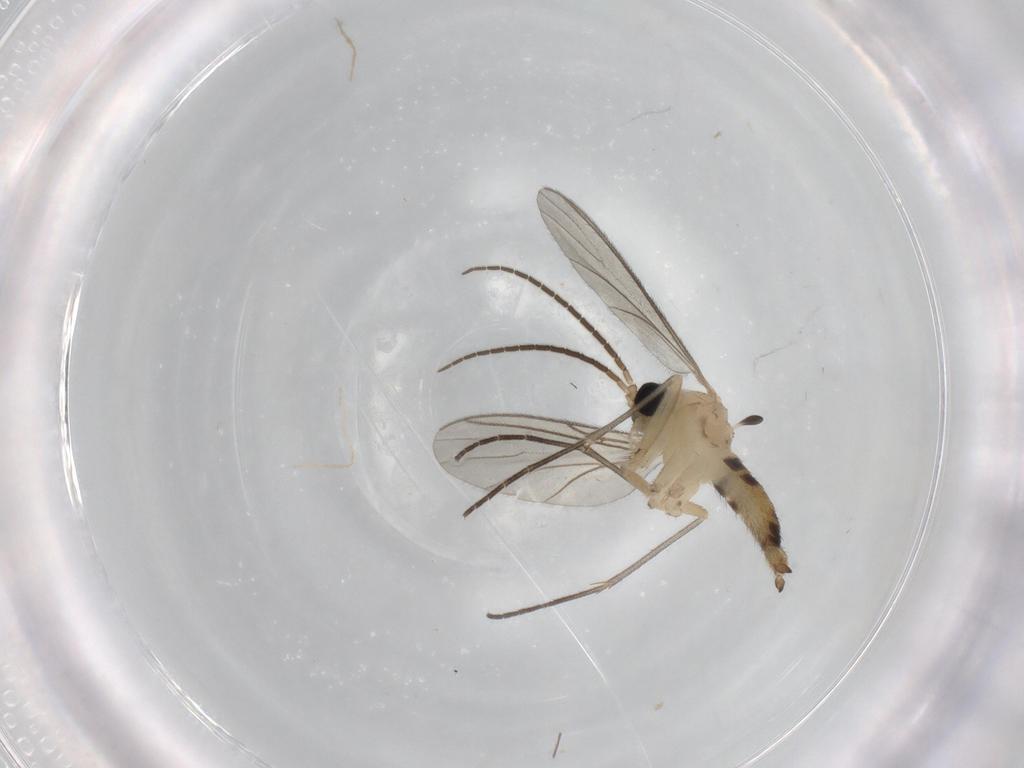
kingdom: Animalia
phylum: Arthropoda
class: Insecta
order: Diptera
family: Sciaridae
